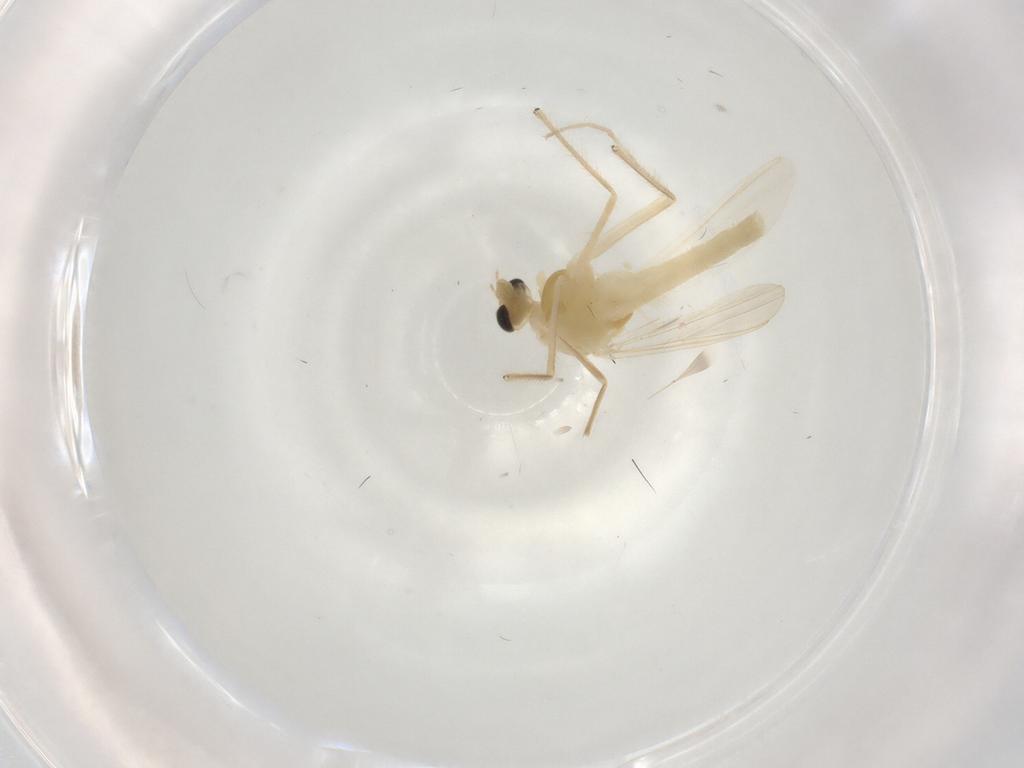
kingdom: Animalia
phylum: Arthropoda
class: Insecta
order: Diptera
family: Chironomidae
